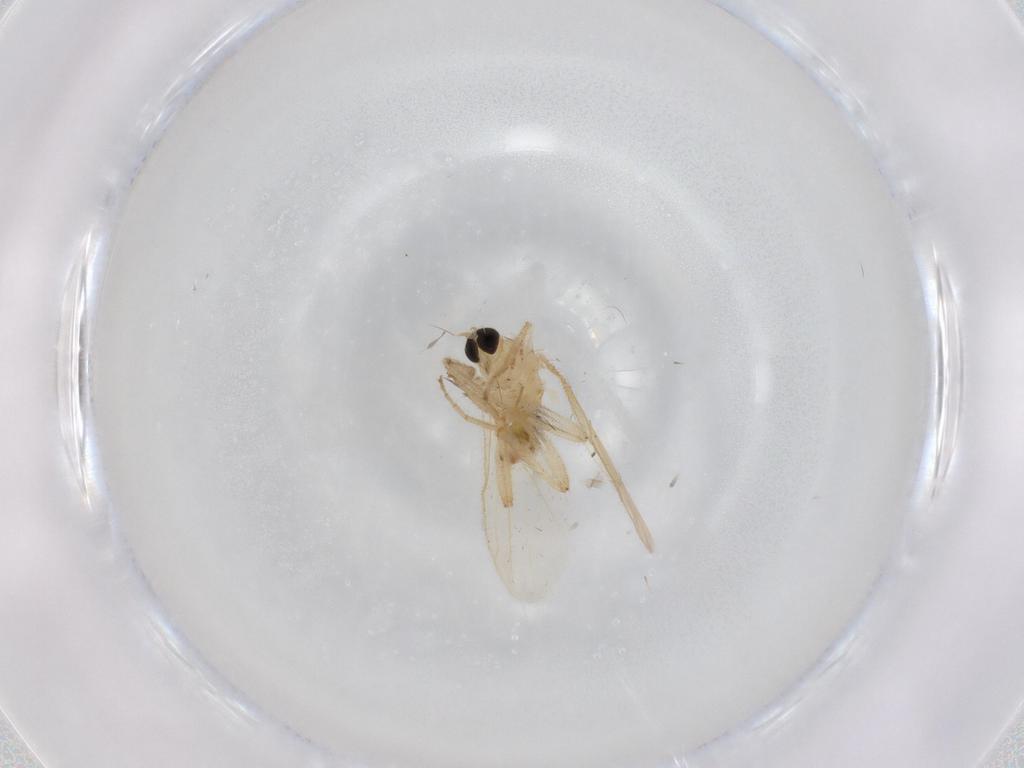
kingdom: Animalia
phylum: Arthropoda
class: Insecta
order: Diptera
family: Hybotidae
